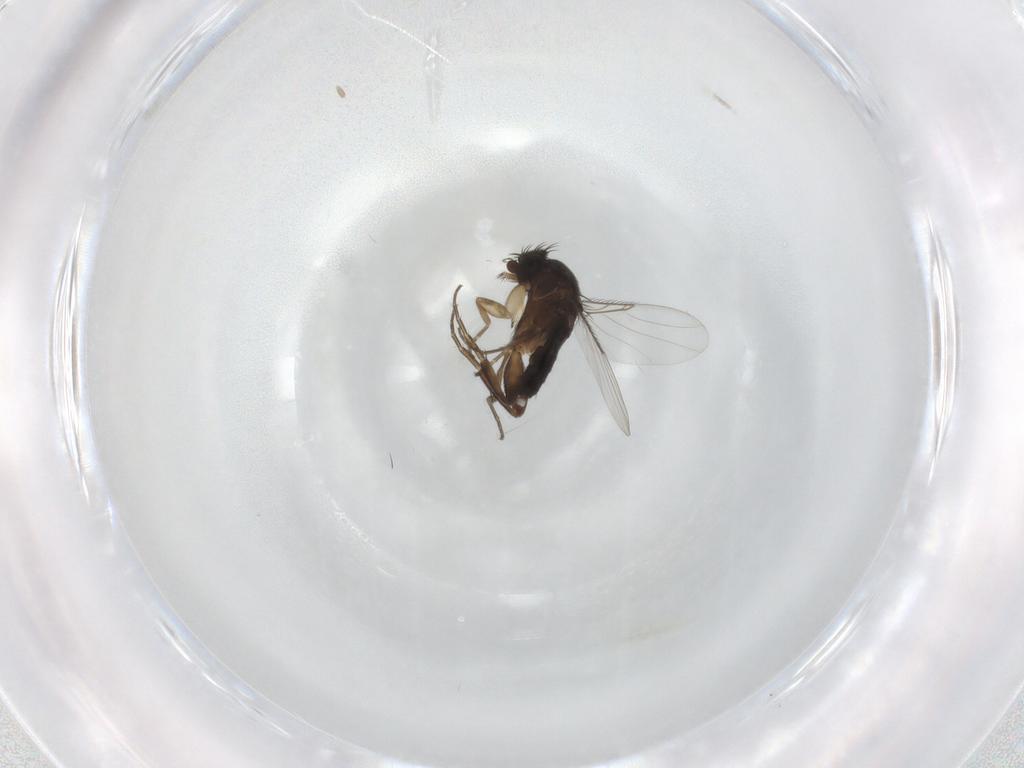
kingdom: Animalia
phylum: Arthropoda
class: Insecta
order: Diptera
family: Phoridae
